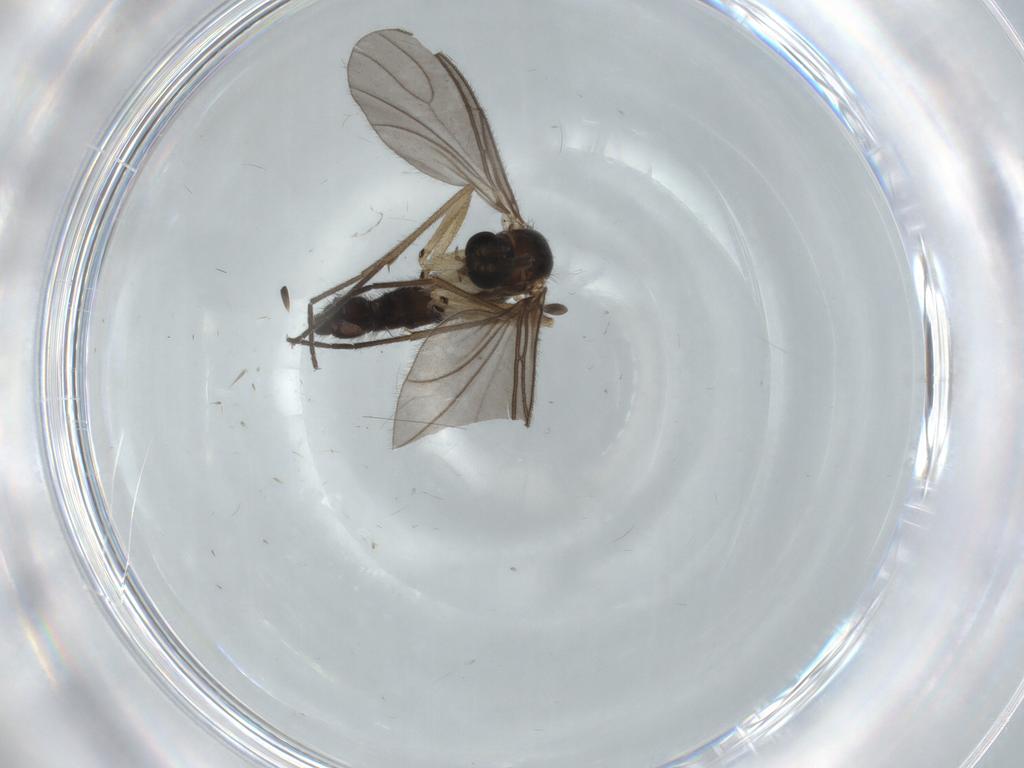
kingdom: Animalia
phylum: Arthropoda
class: Insecta
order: Diptera
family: Sciaridae
